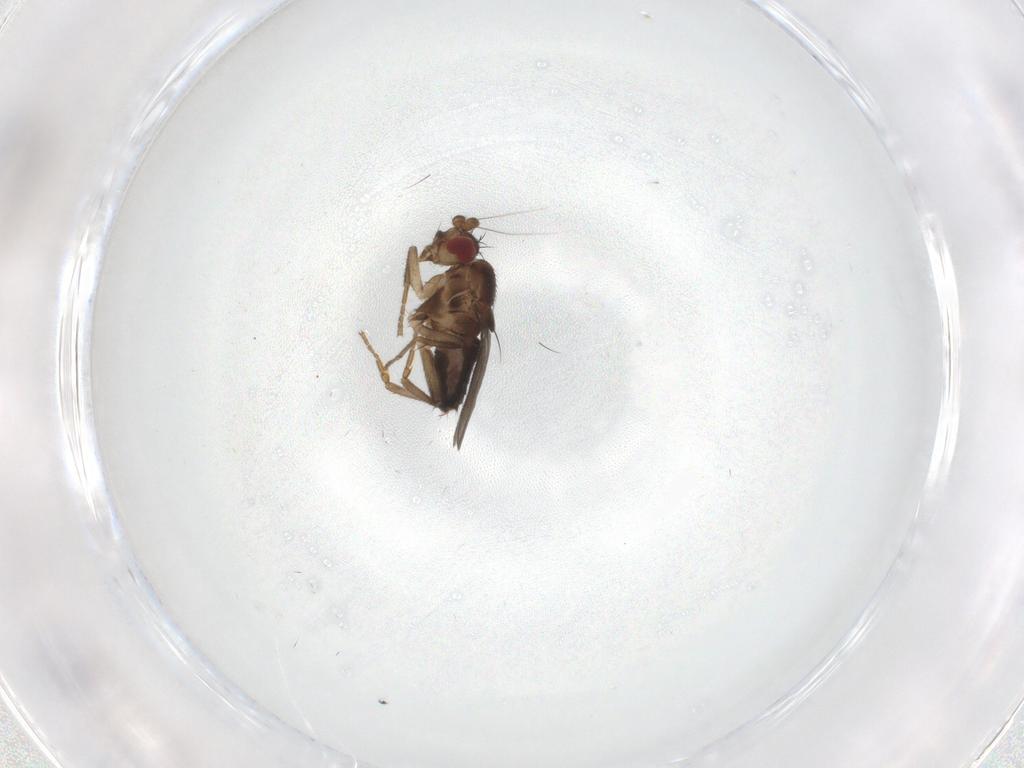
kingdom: Animalia
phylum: Arthropoda
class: Insecta
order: Diptera
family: Sphaeroceridae
